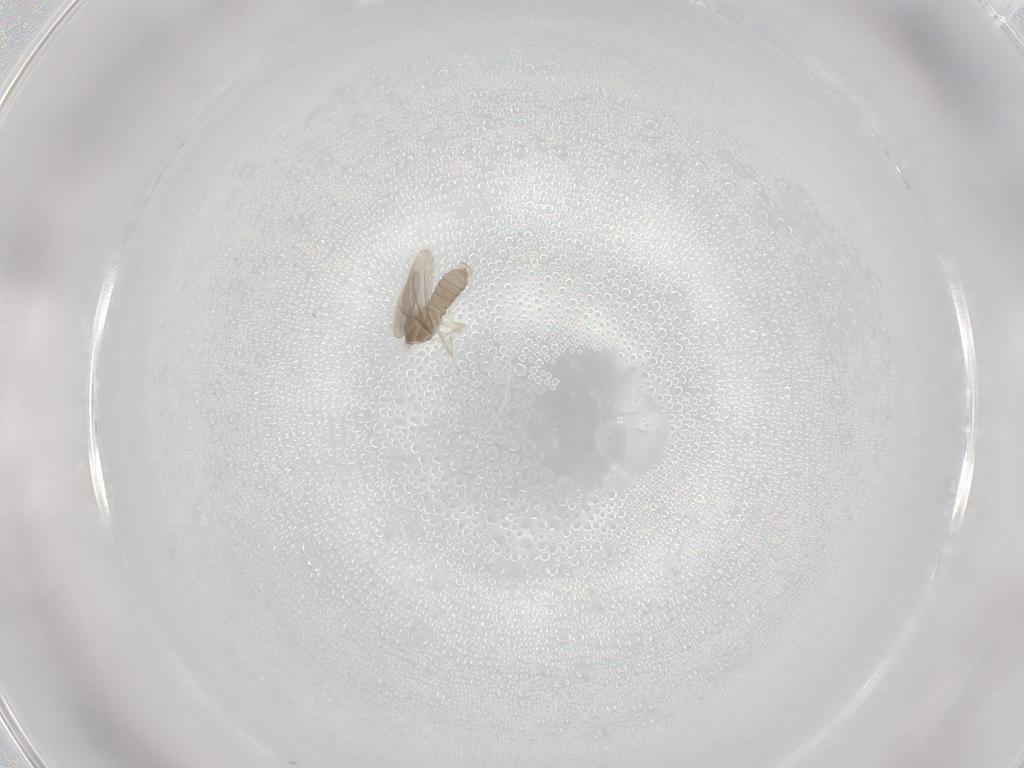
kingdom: Animalia
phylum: Arthropoda
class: Insecta
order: Diptera
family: Cecidomyiidae
